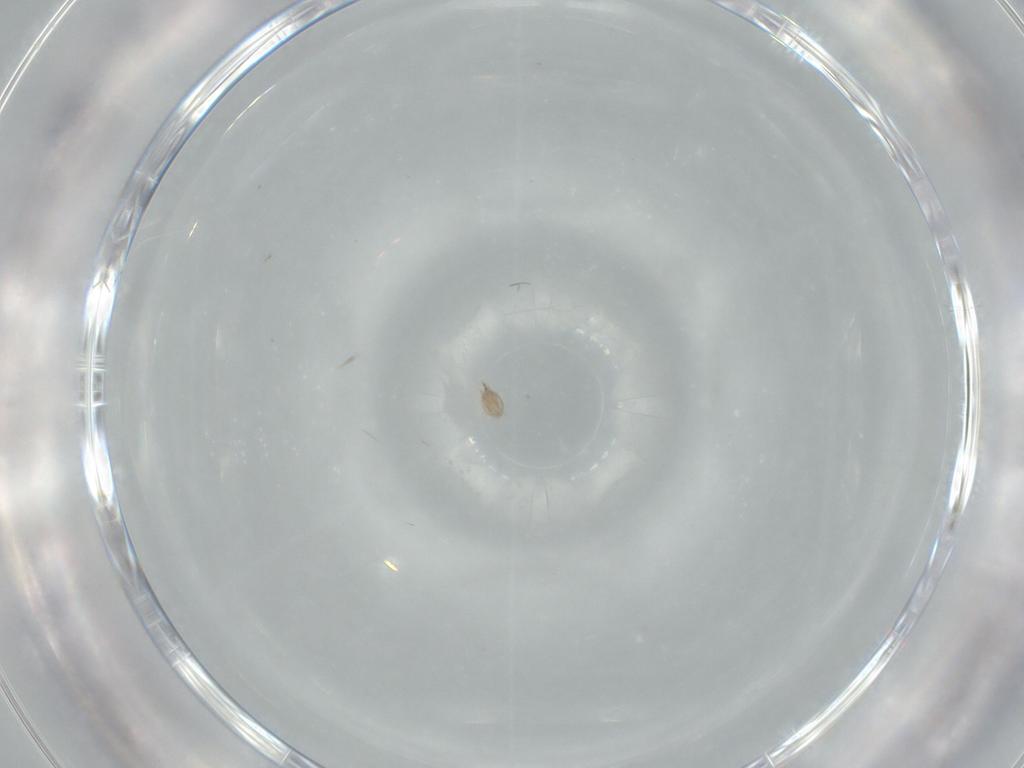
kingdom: Animalia
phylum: Arthropoda
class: Arachnida
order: Trombidiformes
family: Anystidae
